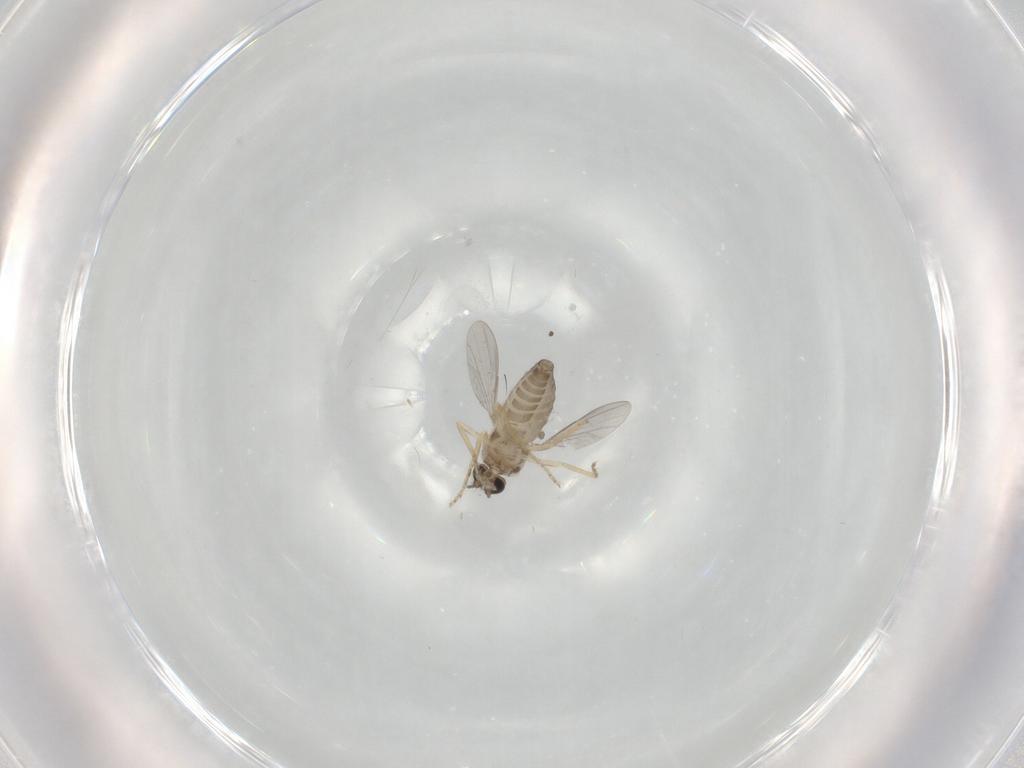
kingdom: Animalia
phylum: Arthropoda
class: Insecta
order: Diptera
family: Ceratopogonidae
